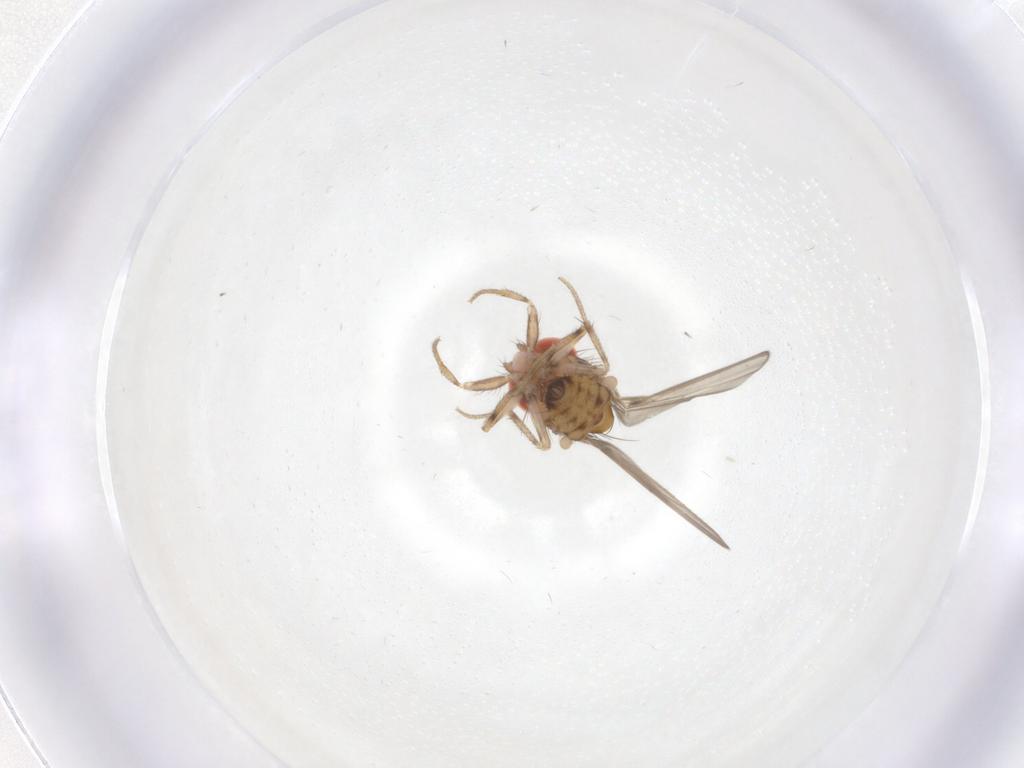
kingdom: Animalia
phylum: Arthropoda
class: Insecta
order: Diptera
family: Drosophilidae
